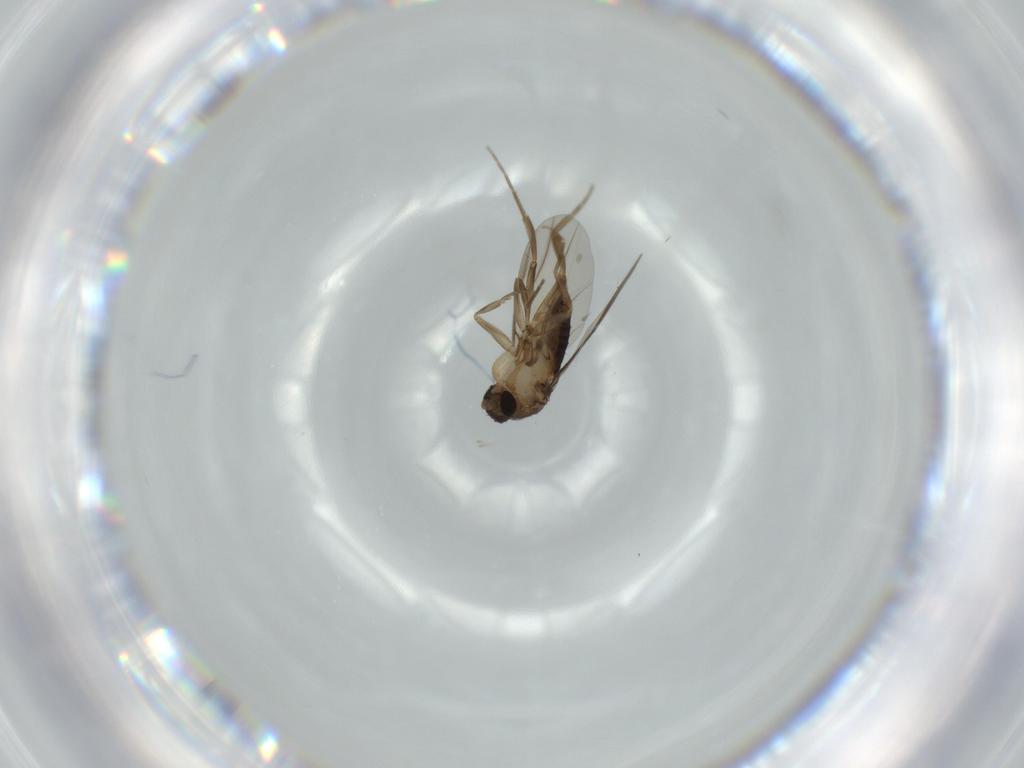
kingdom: Animalia
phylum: Arthropoda
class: Insecta
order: Diptera
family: Phoridae
